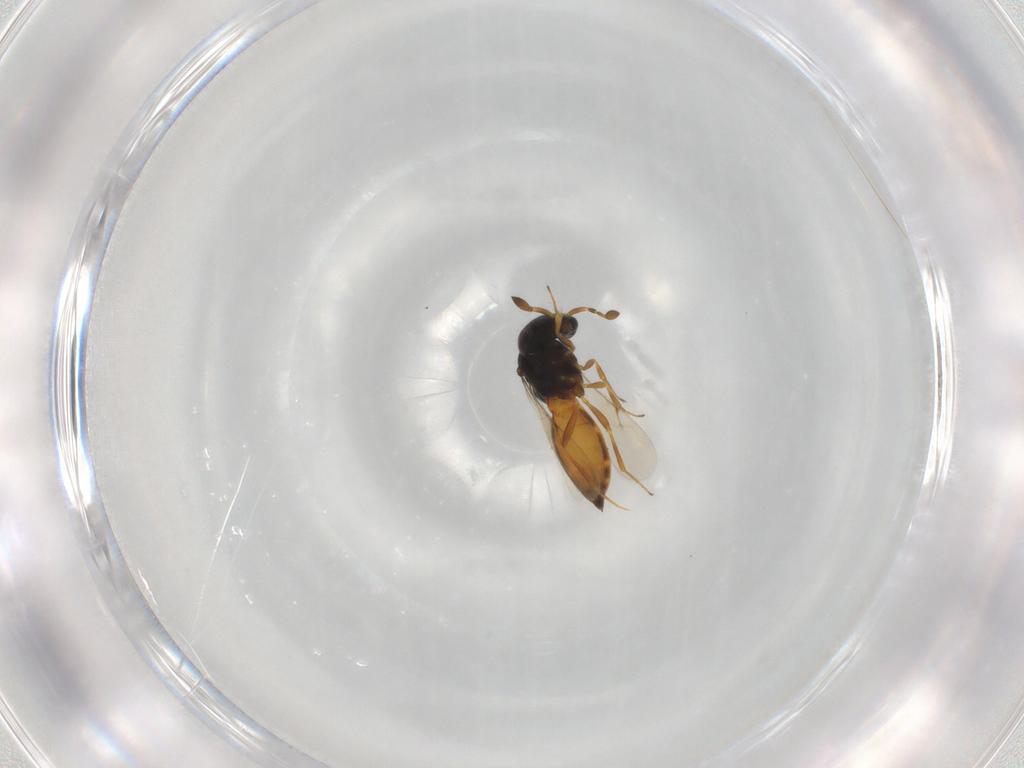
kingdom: Animalia
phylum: Arthropoda
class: Insecta
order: Hymenoptera
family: Scelionidae
